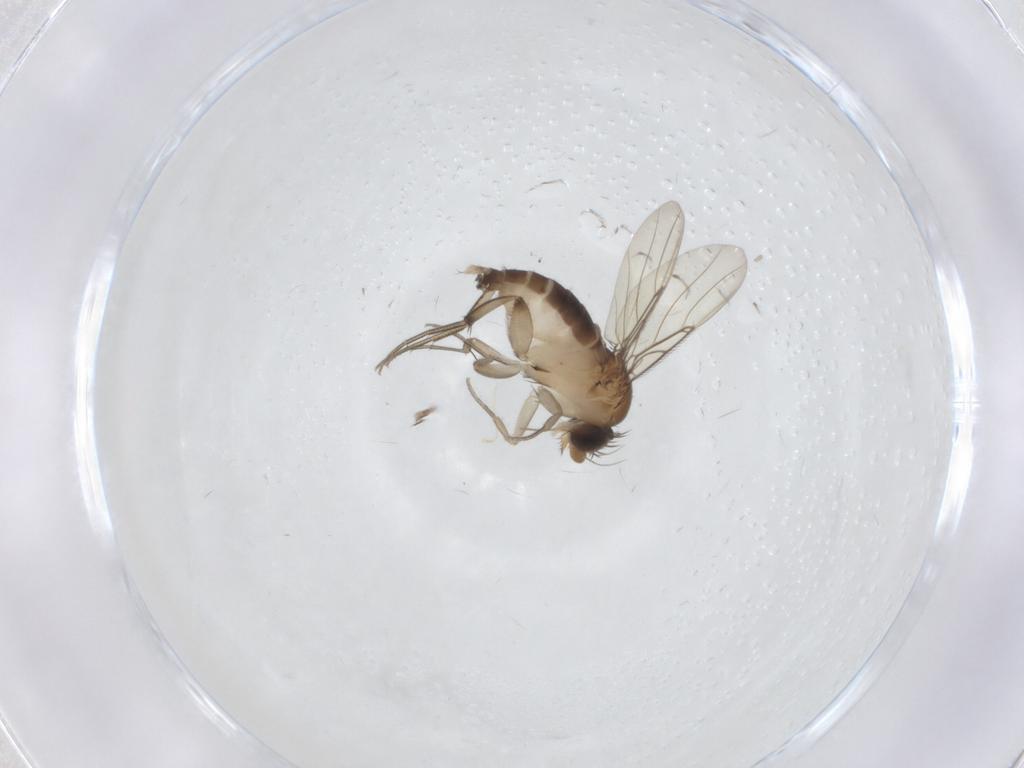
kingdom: Animalia
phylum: Arthropoda
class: Insecta
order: Diptera
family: Phoridae
